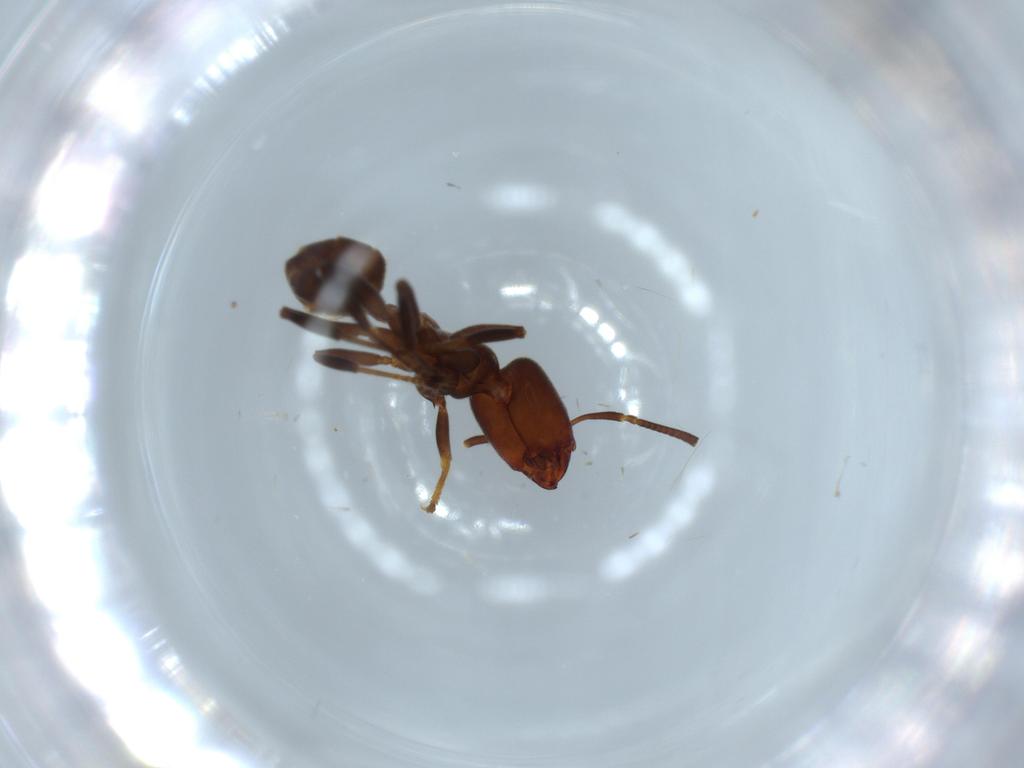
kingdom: Animalia
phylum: Arthropoda
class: Insecta
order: Hymenoptera
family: Formicidae
